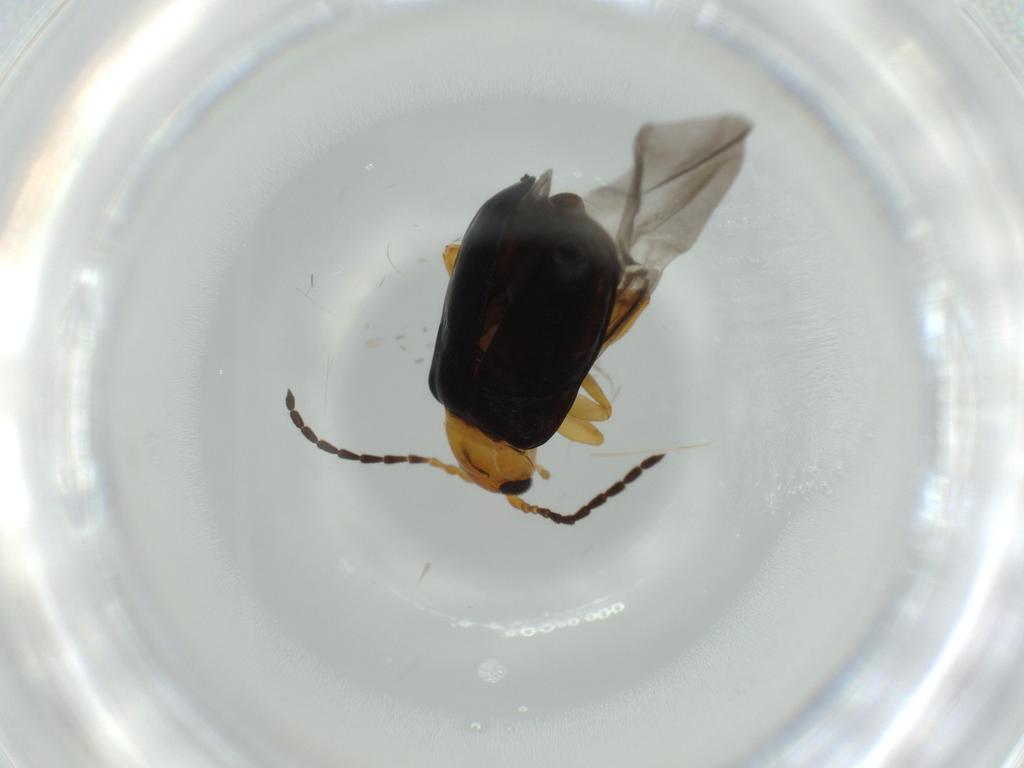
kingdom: Animalia
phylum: Arthropoda
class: Insecta
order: Coleoptera
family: Chrysomelidae
